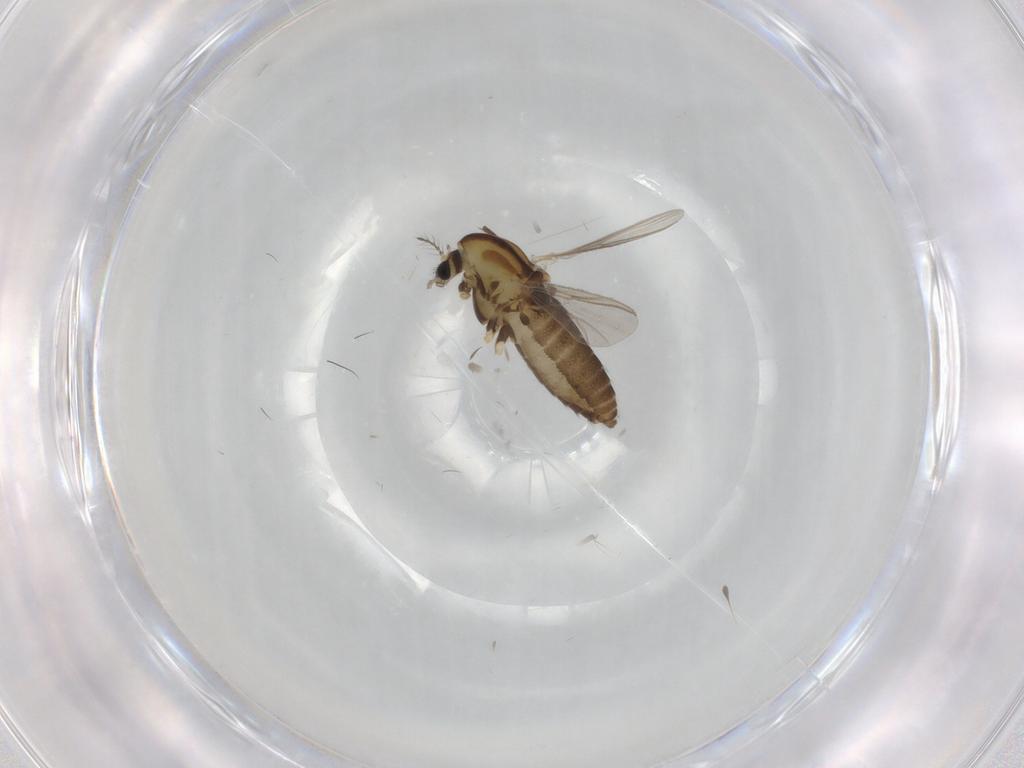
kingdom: Animalia
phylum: Arthropoda
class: Insecta
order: Diptera
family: Chironomidae
